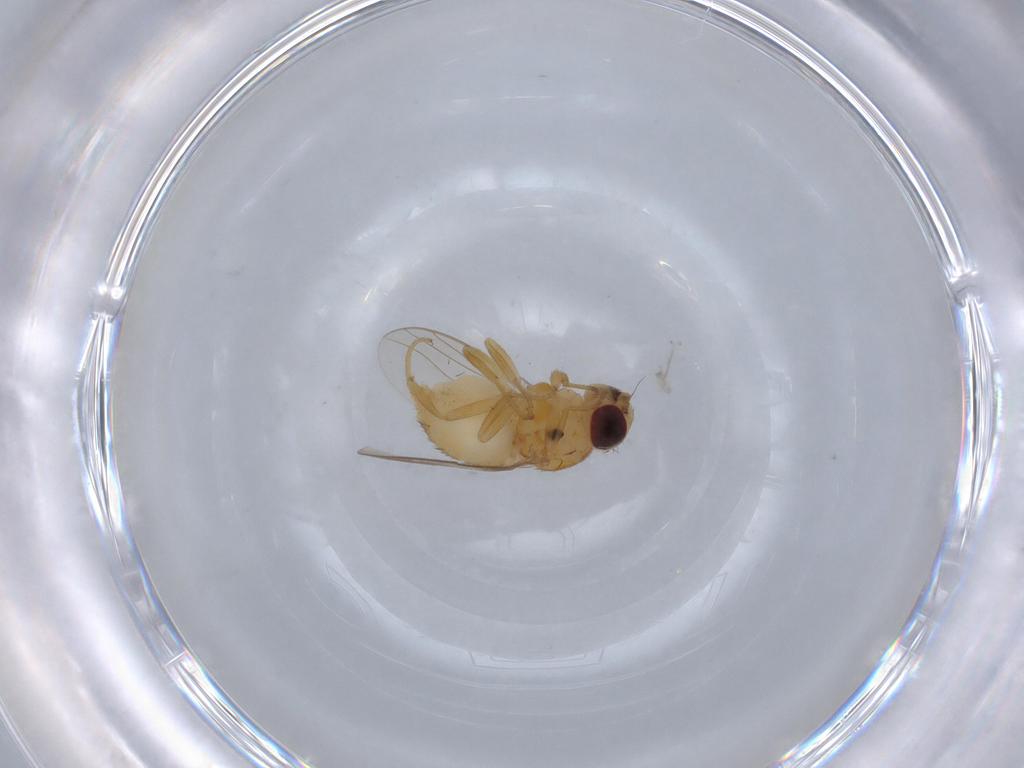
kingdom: Animalia
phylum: Arthropoda
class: Insecta
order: Diptera
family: Chloropidae
